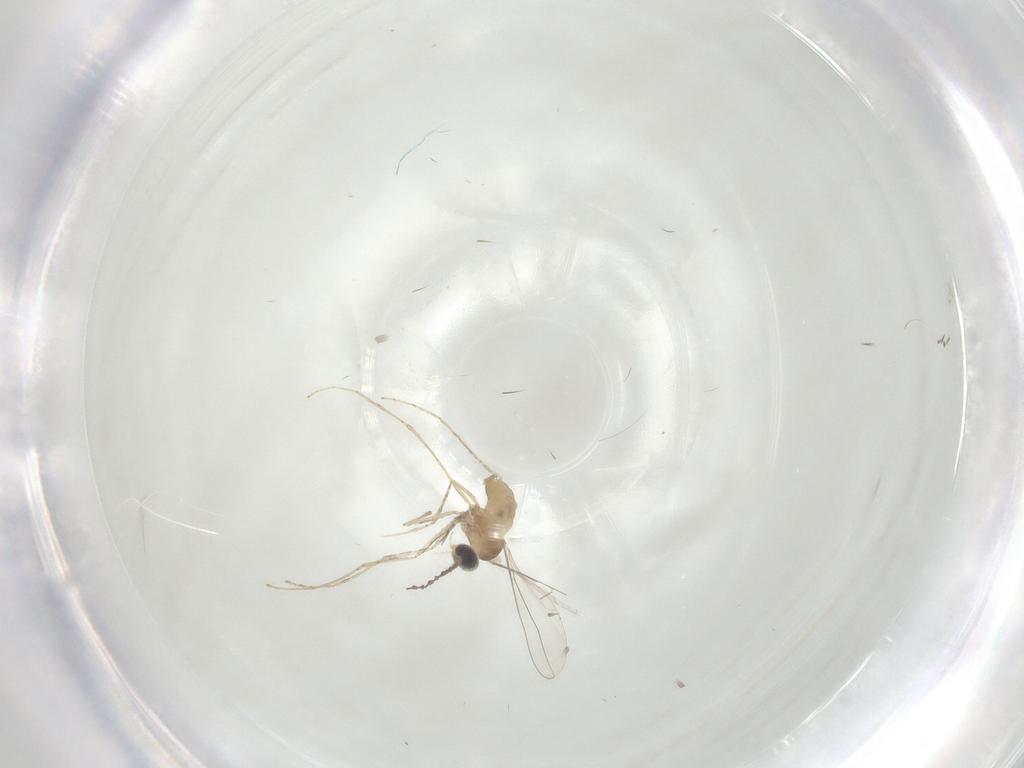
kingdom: Animalia
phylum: Arthropoda
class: Insecta
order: Diptera
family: Cecidomyiidae
